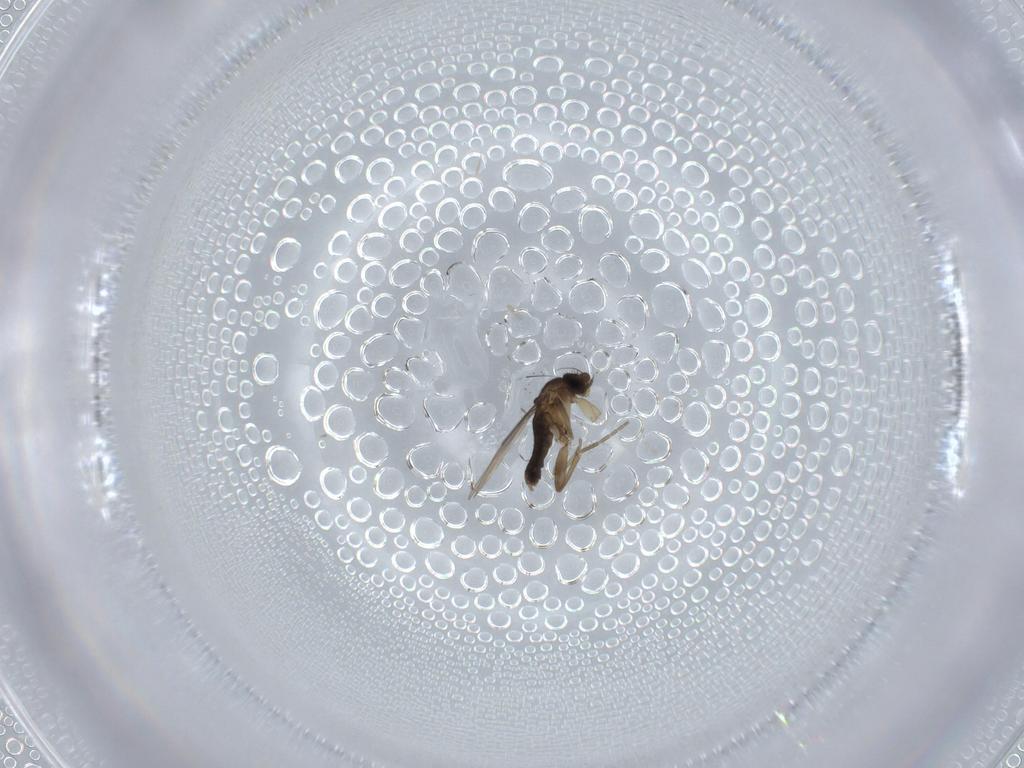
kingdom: Animalia
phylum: Arthropoda
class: Insecta
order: Diptera
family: Phoridae
